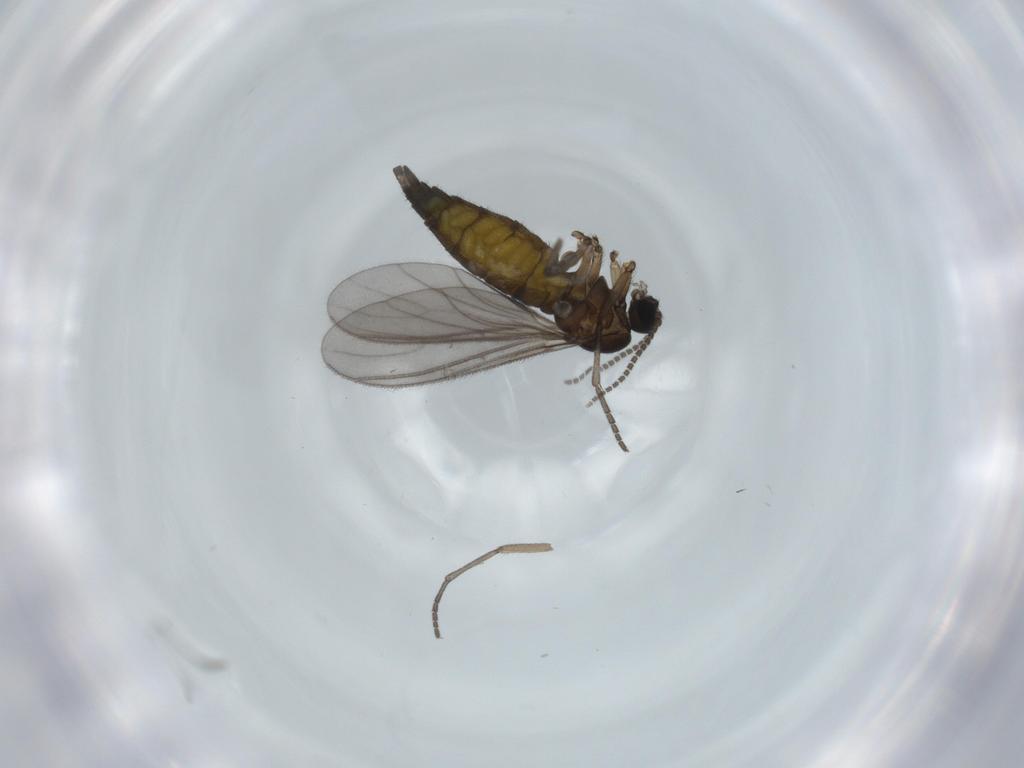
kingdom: Animalia
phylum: Arthropoda
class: Insecta
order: Diptera
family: Sciaridae
